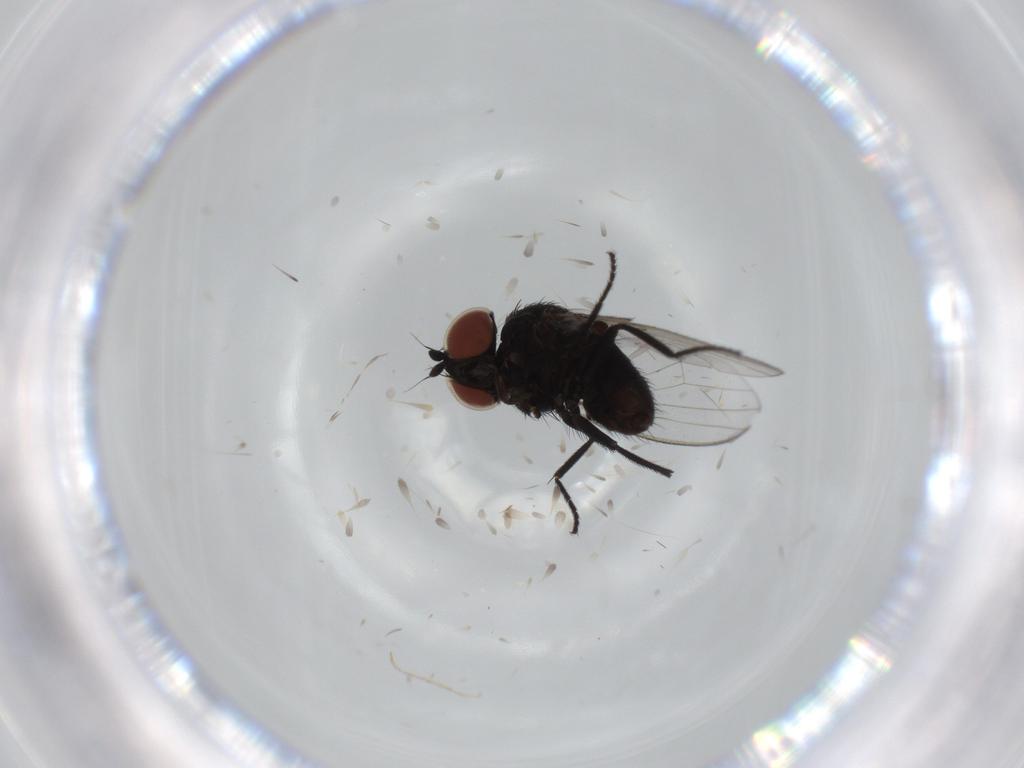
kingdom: Animalia
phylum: Arthropoda
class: Insecta
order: Diptera
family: Milichiidae
